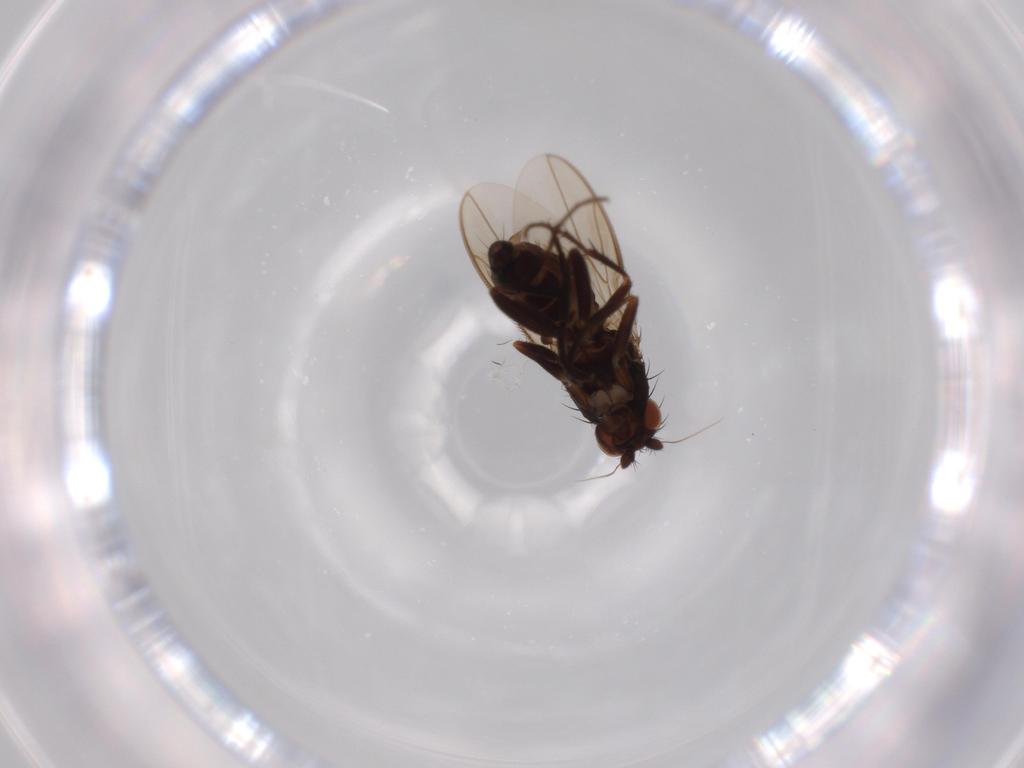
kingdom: Animalia
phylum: Arthropoda
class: Insecta
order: Diptera
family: Sphaeroceridae
